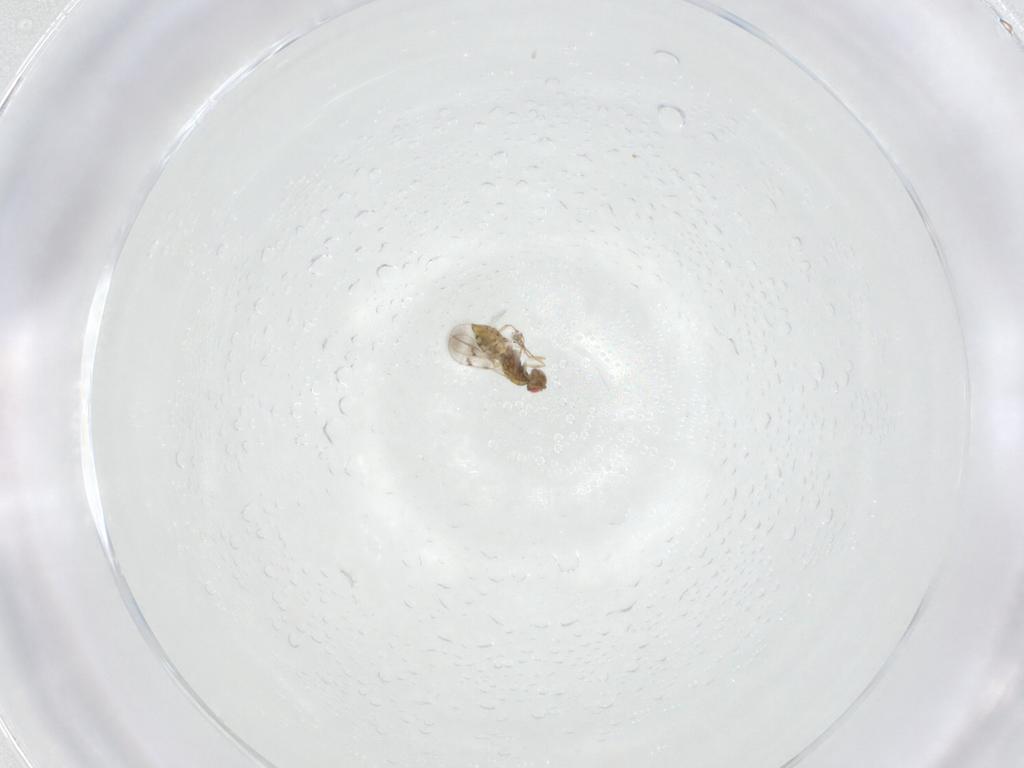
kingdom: Animalia
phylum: Arthropoda
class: Insecta
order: Hymenoptera
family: Eulophidae
